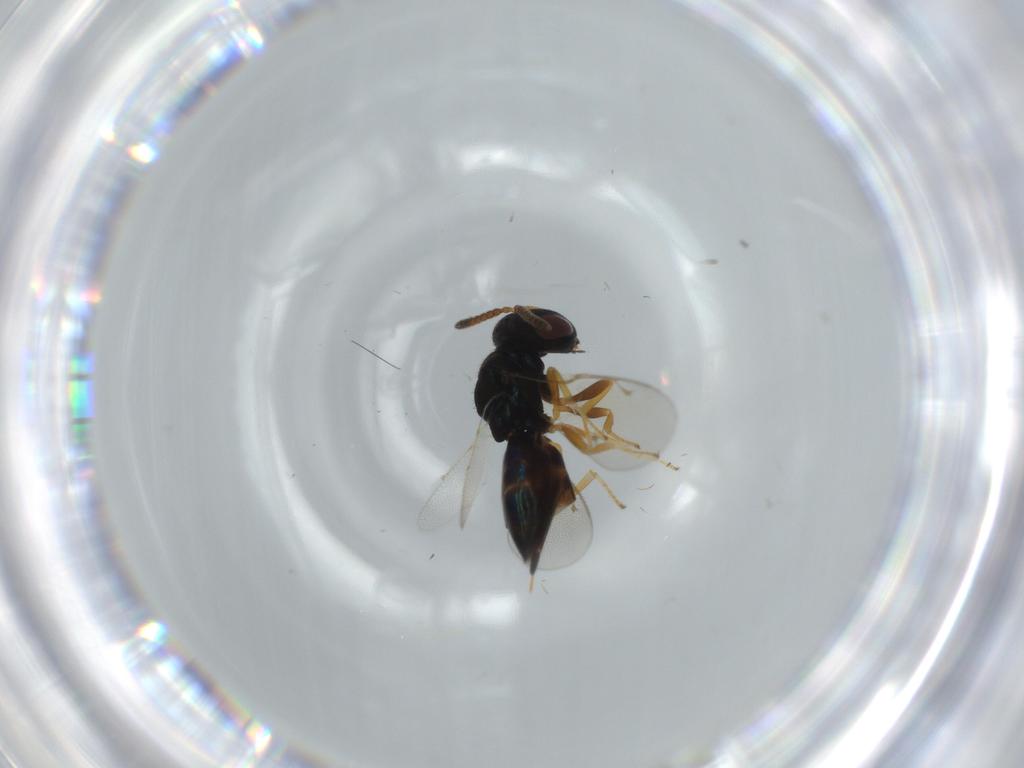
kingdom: Animalia
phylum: Arthropoda
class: Insecta
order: Hymenoptera
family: Pteromalidae
